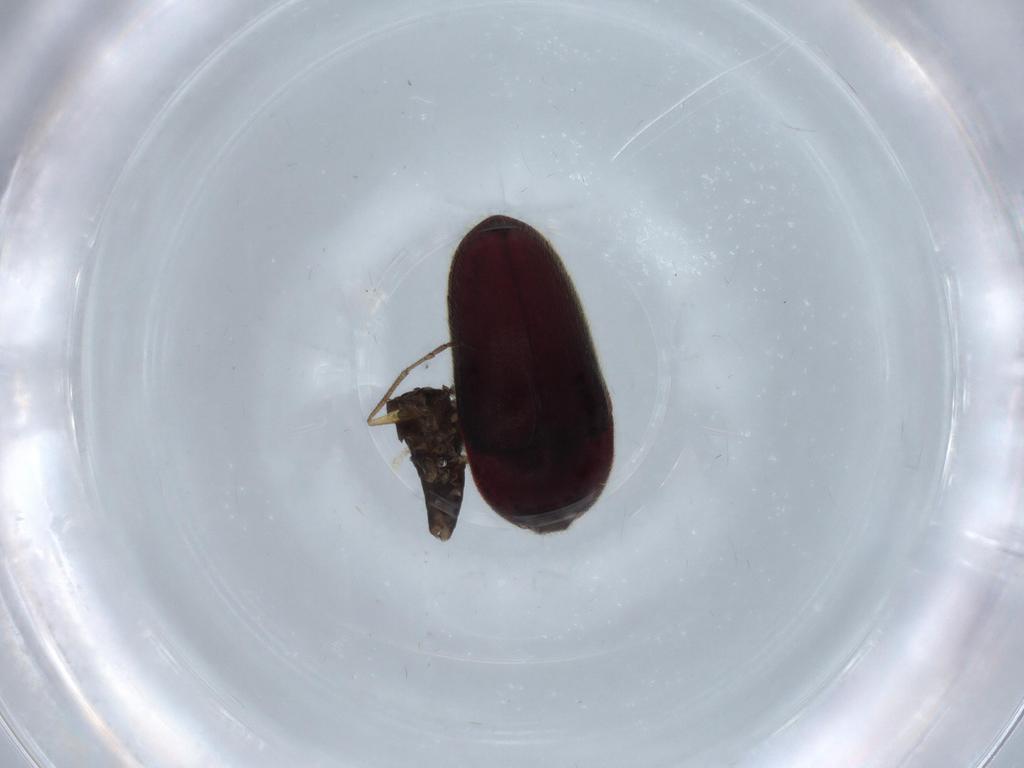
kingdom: Animalia
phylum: Arthropoda
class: Insecta
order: Coleoptera
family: Throscidae
